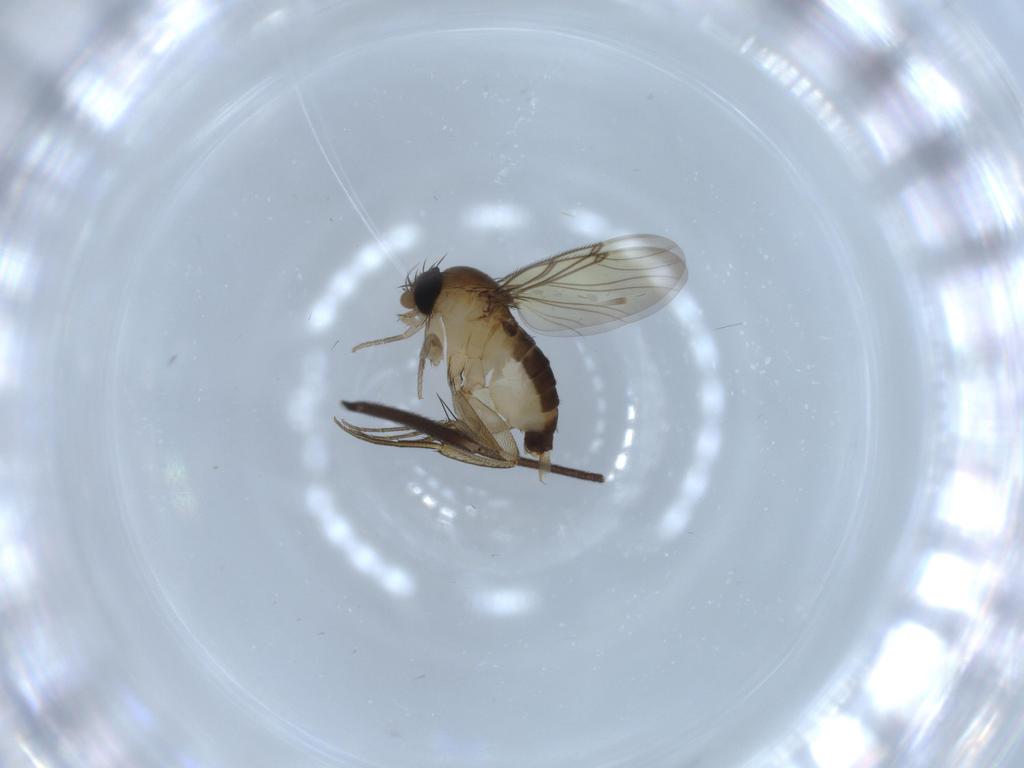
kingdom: Animalia
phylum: Arthropoda
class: Insecta
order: Diptera
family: Sciaridae
